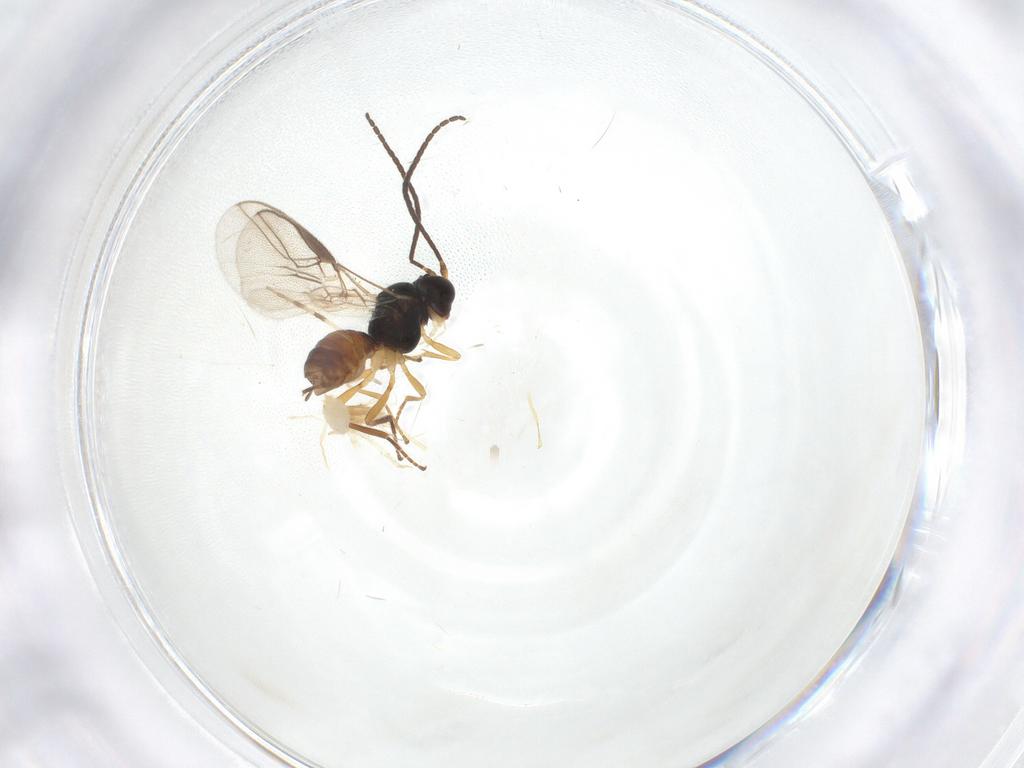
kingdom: Animalia
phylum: Arthropoda
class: Arachnida
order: Trombidiformes
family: Trombidiidae
